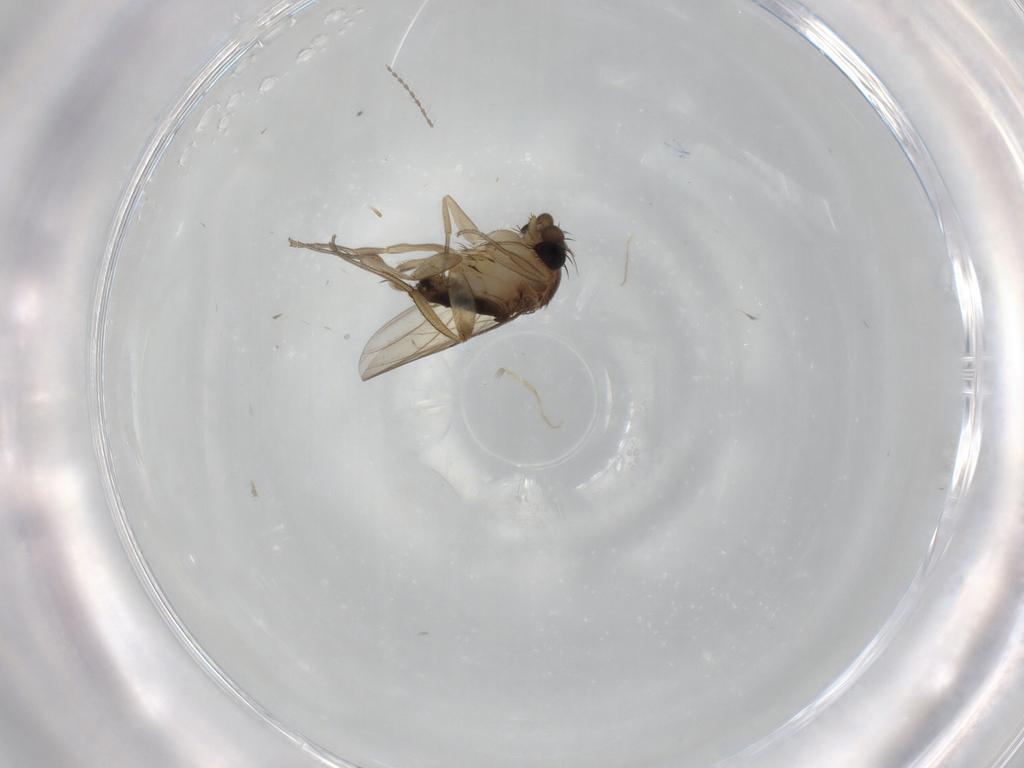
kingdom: Animalia
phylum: Arthropoda
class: Insecta
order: Diptera
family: Phoridae
